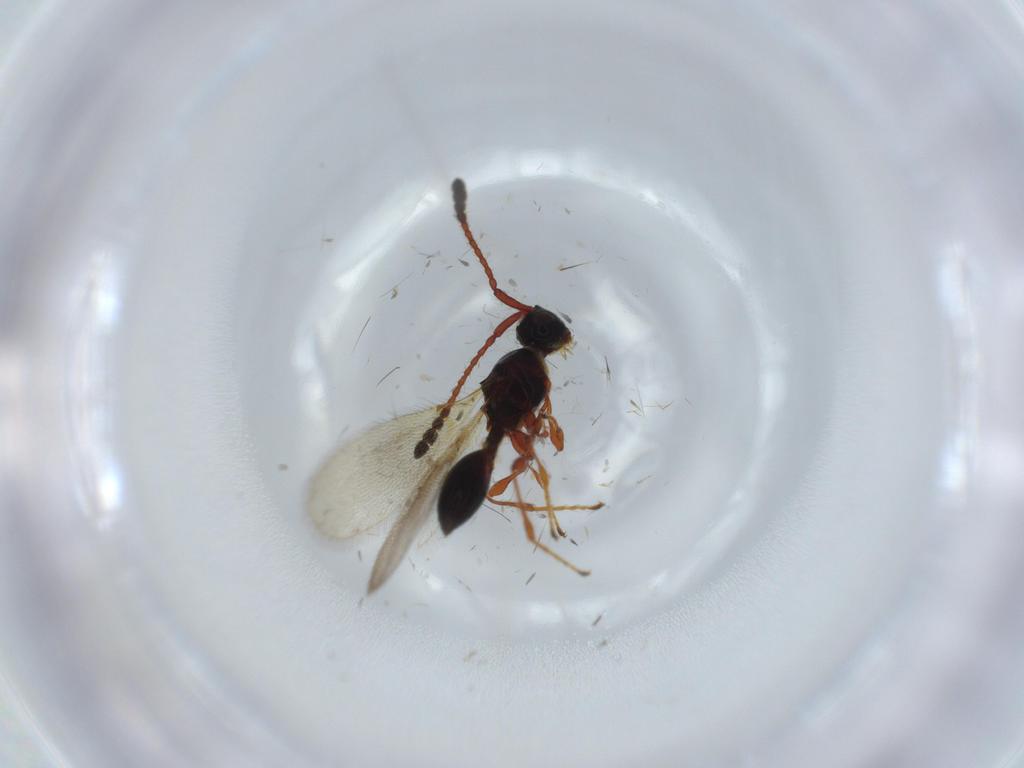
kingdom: Animalia
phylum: Arthropoda
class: Insecta
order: Hymenoptera
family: Diapriidae
